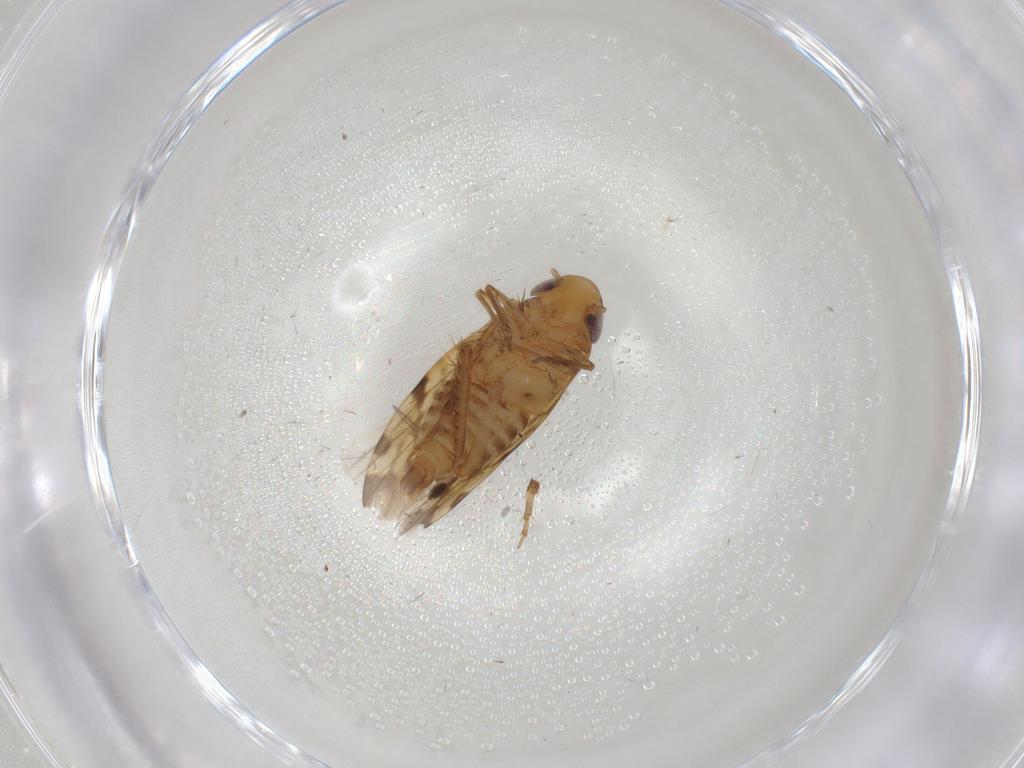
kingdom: Animalia
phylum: Arthropoda
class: Insecta
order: Hemiptera
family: Cicadellidae
